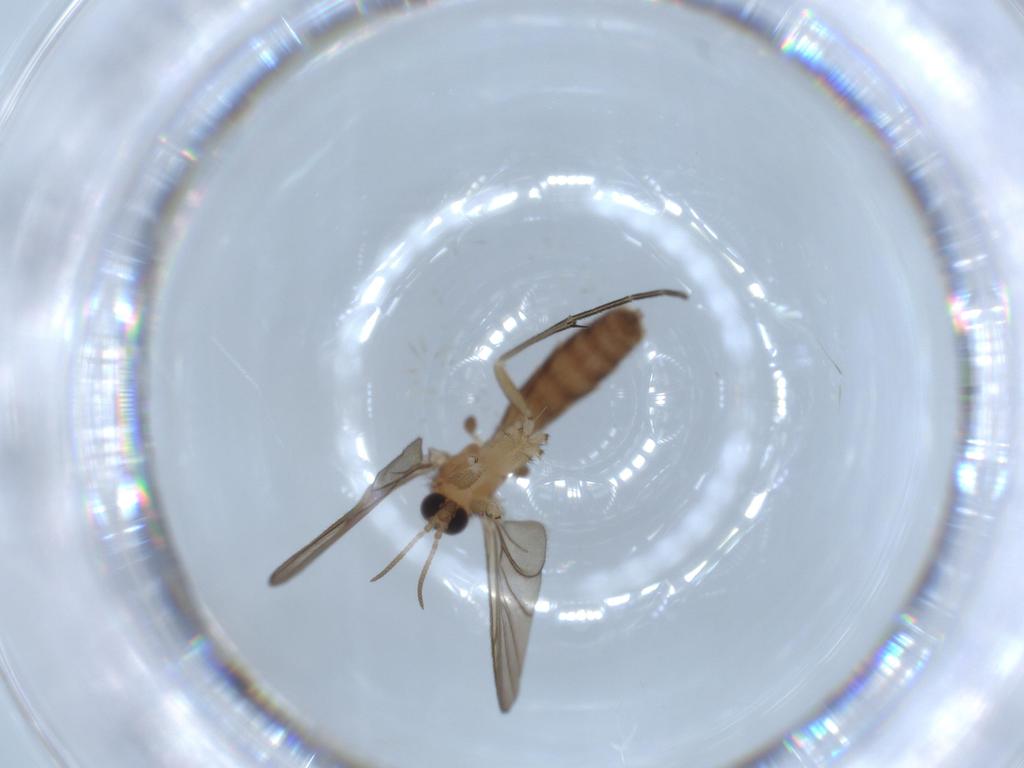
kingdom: Animalia
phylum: Arthropoda
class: Insecta
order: Diptera
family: Keroplatidae
